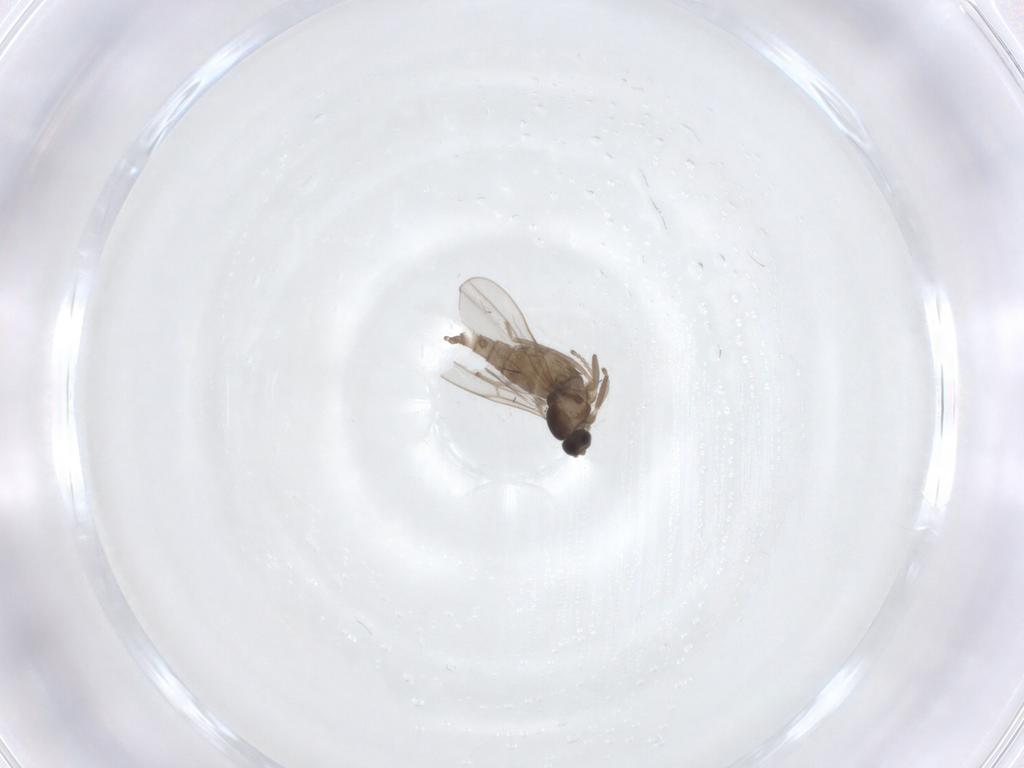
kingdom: Animalia
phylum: Arthropoda
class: Insecta
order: Diptera
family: Cecidomyiidae
